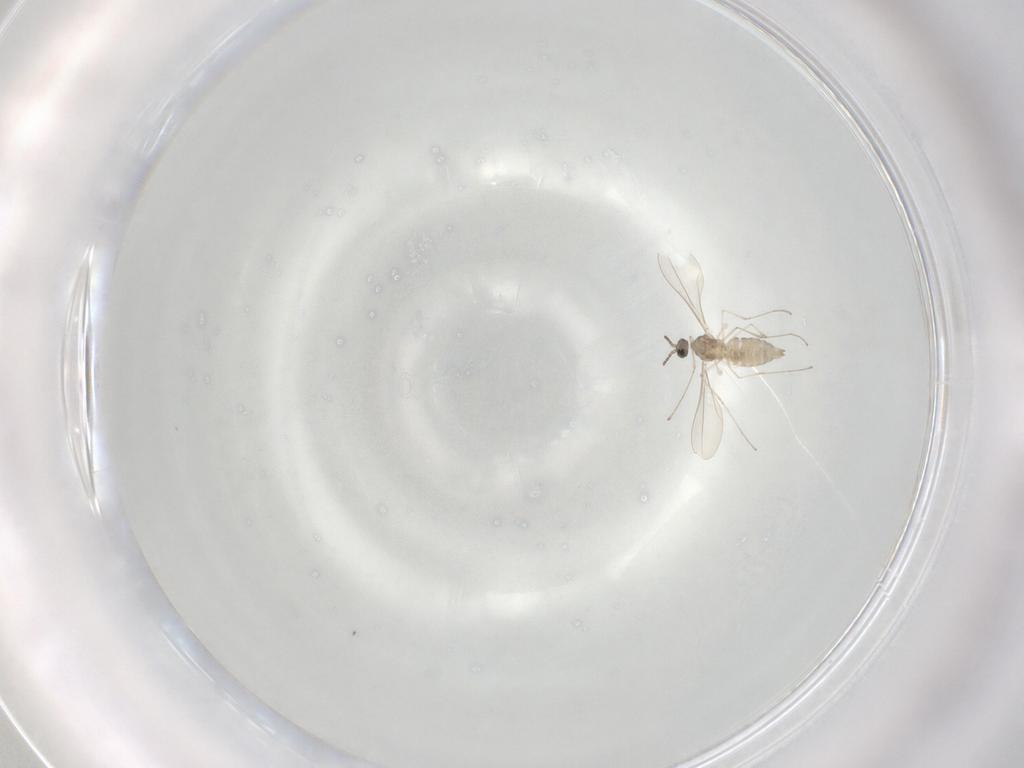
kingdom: Animalia
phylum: Arthropoda
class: Insecta
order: Diptera
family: Cecidomyiidae
